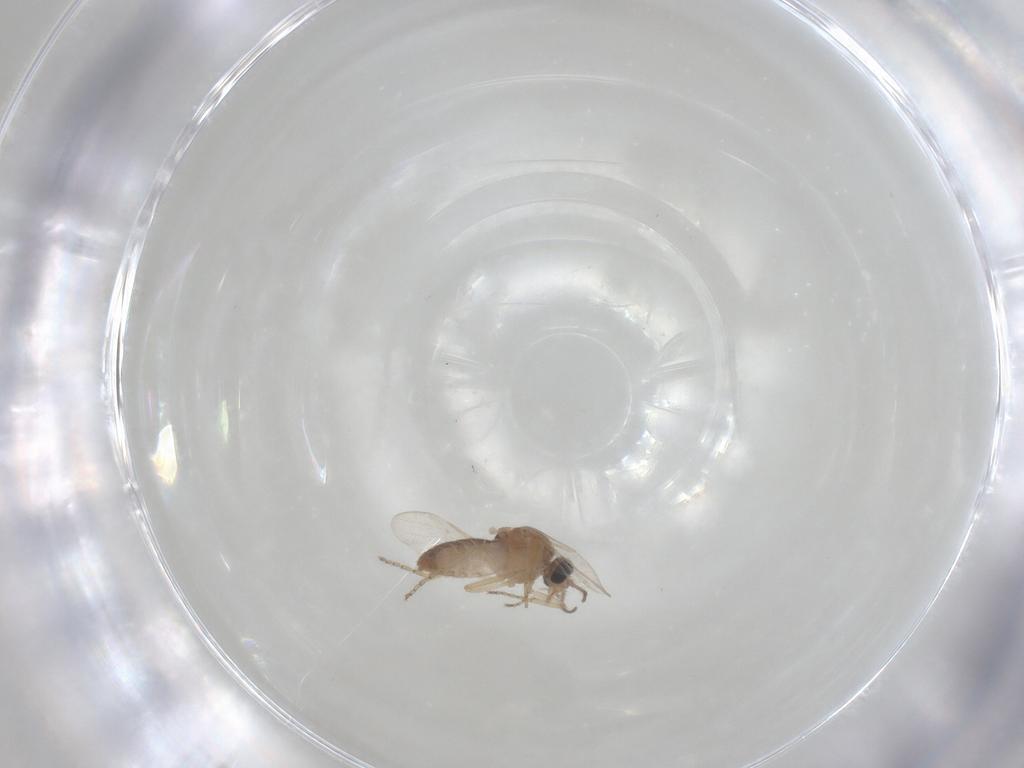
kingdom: Animalia
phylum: Arthropoda
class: Insecta
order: Diptera
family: Ceratopogonidae
